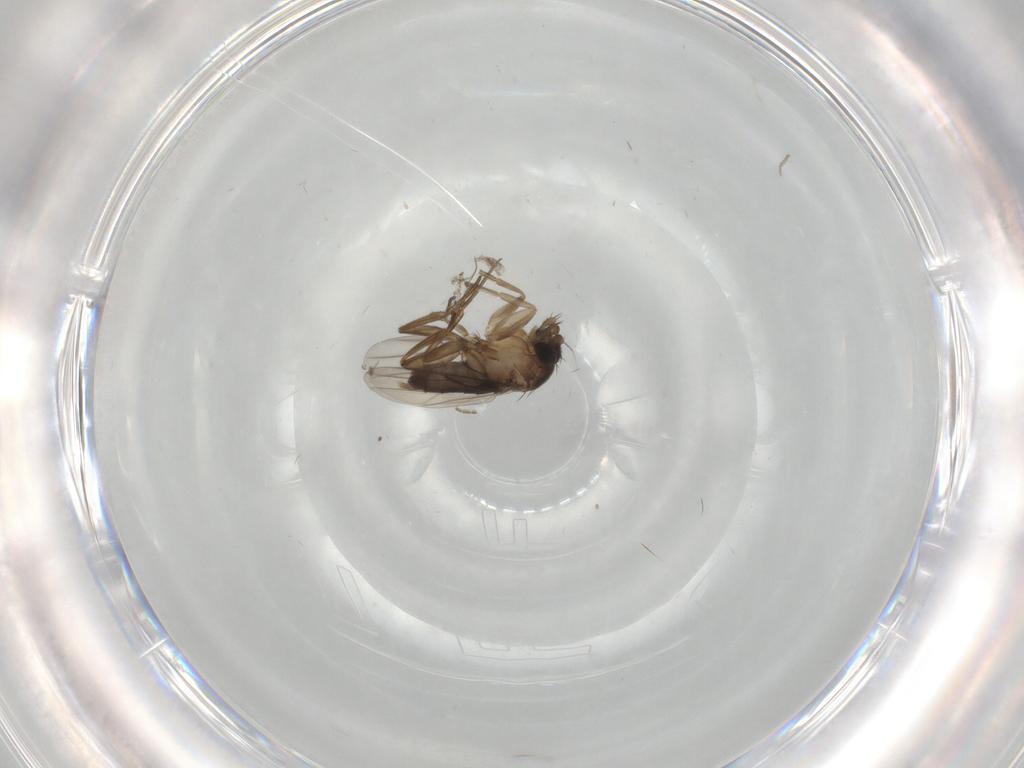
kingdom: Animalia
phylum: Arthropoda
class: Insecta
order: Diptera
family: Phoridae
